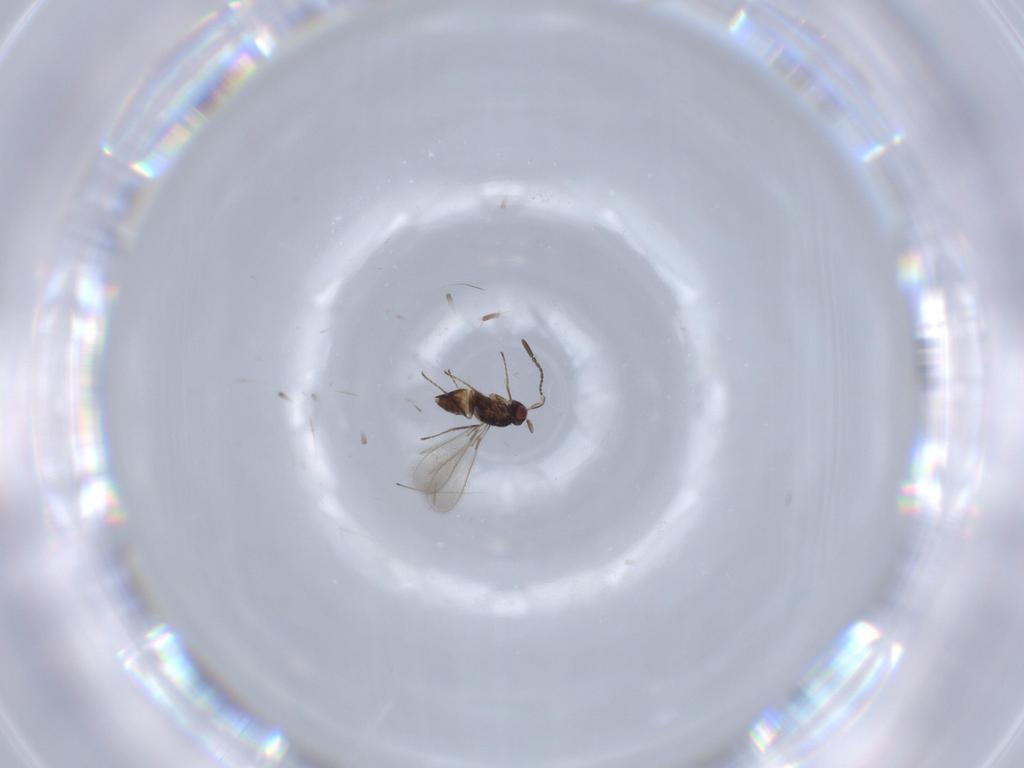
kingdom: Animalia
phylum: Arthropoda
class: Insecta
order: Hymenoptera
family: Mymaridae
